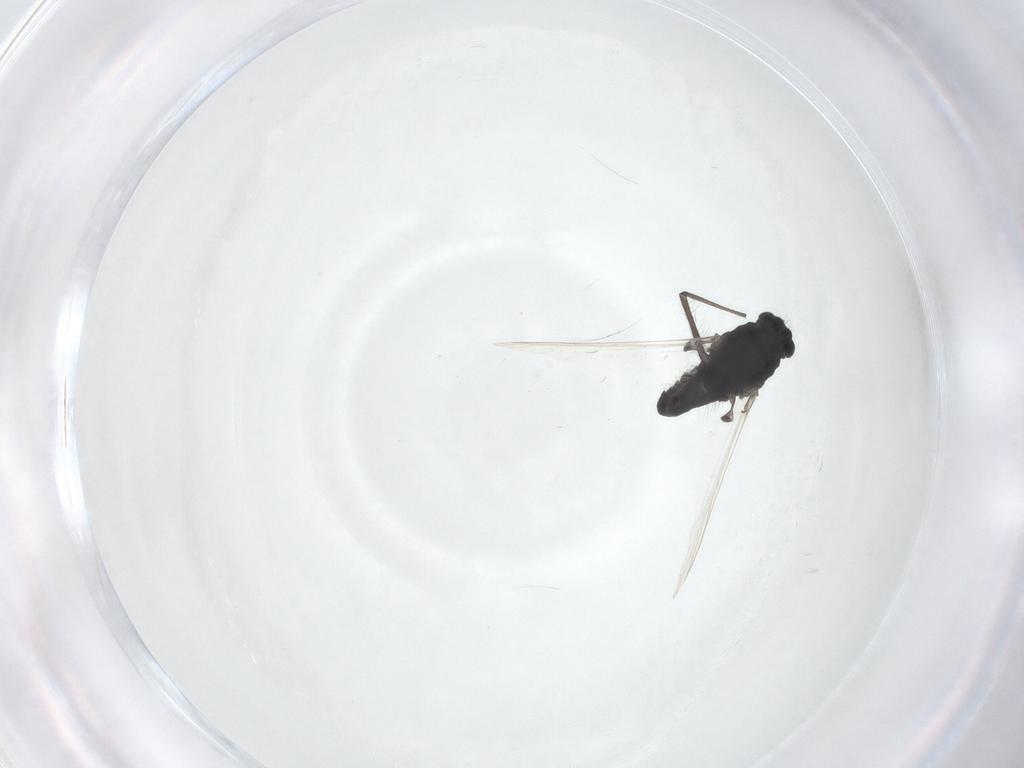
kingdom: Animalia
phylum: Arthropoda
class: Insecta
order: Diptera
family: Chironomidae
